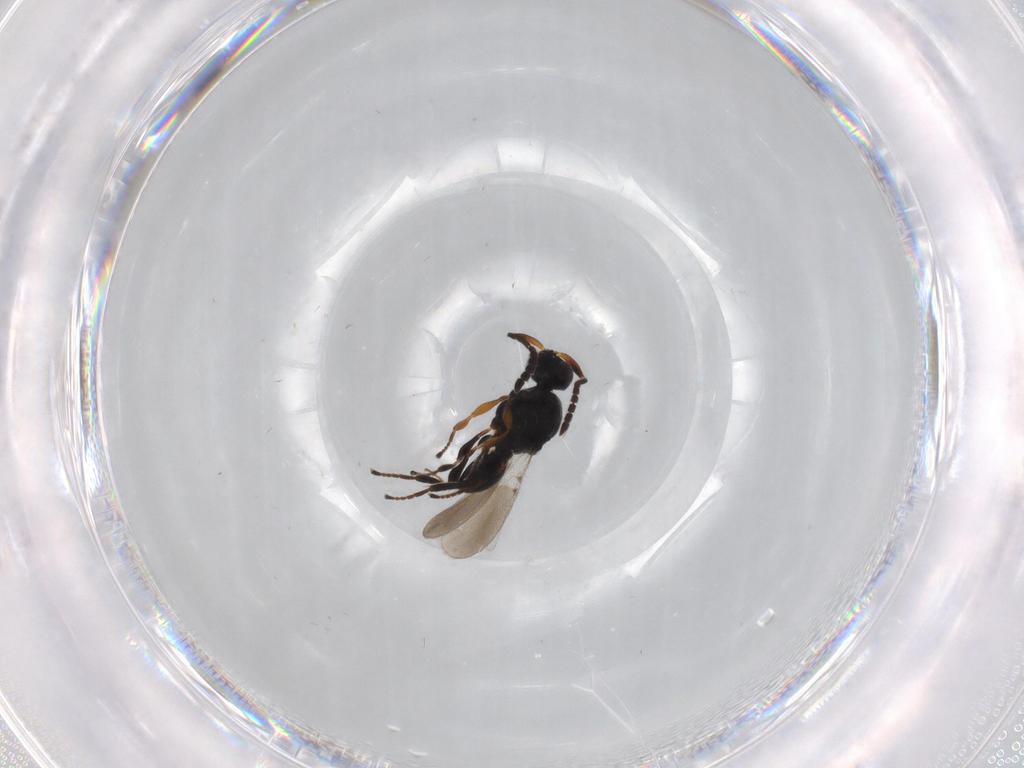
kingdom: Animalia
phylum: Arthropoda
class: Insecta
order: Hymenoptera
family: Platygastridae
